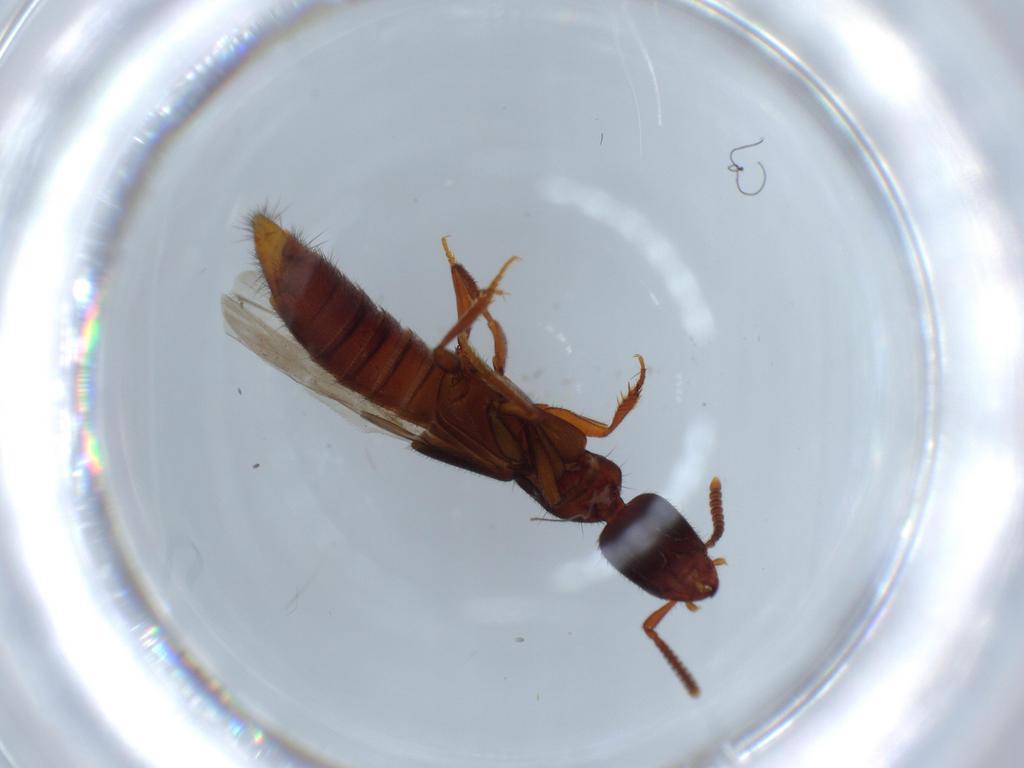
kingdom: Animalia
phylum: Arthropoda
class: Insecta
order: Coleoptera
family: Staphylinidae
